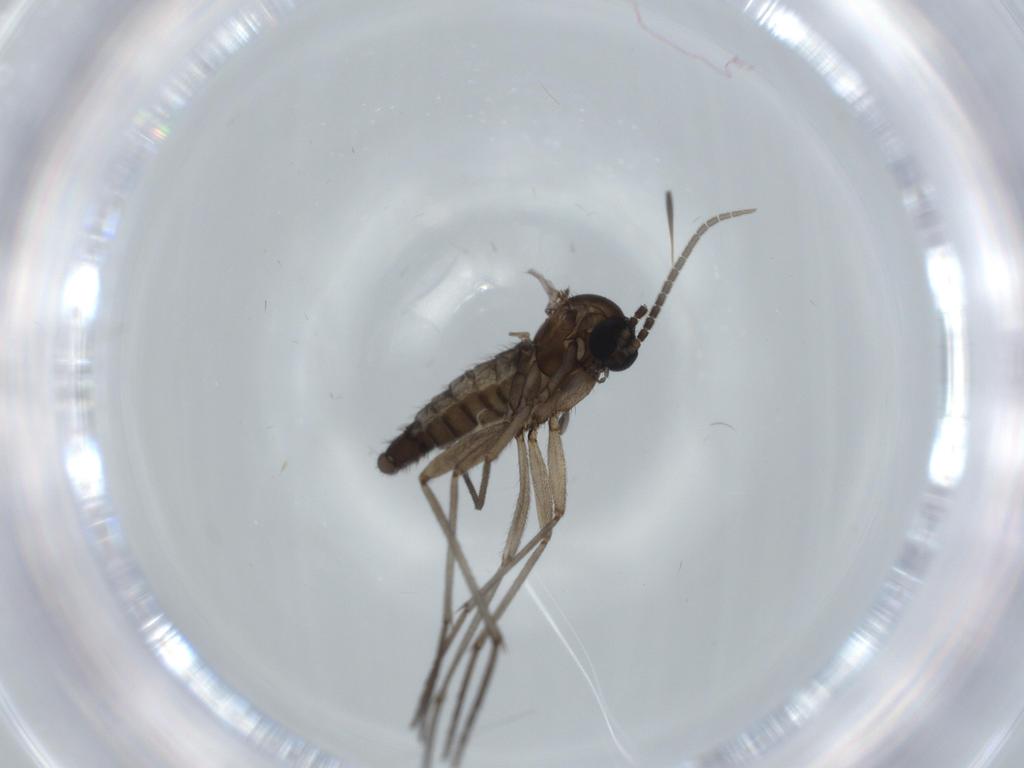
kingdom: Animalia
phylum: Arthropoda
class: Insecta
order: Diptera
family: Sciaridae
